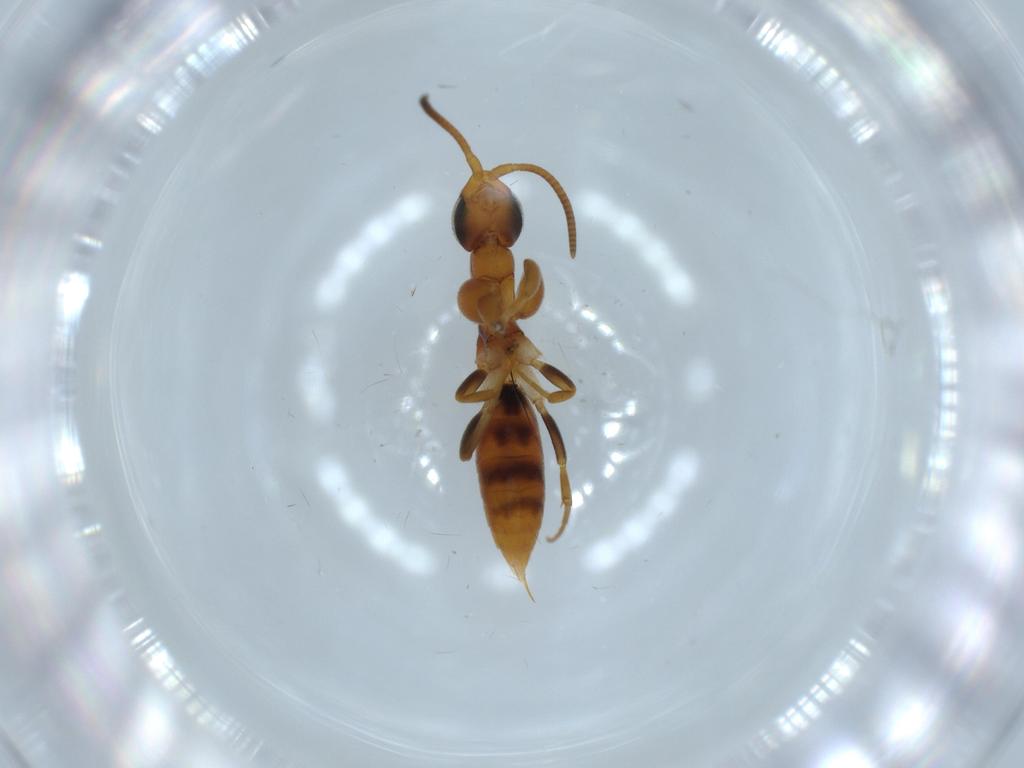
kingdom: Animalia
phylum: Arthropoda
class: Insecta
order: Hymenoptera
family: Sclerogibbidae
